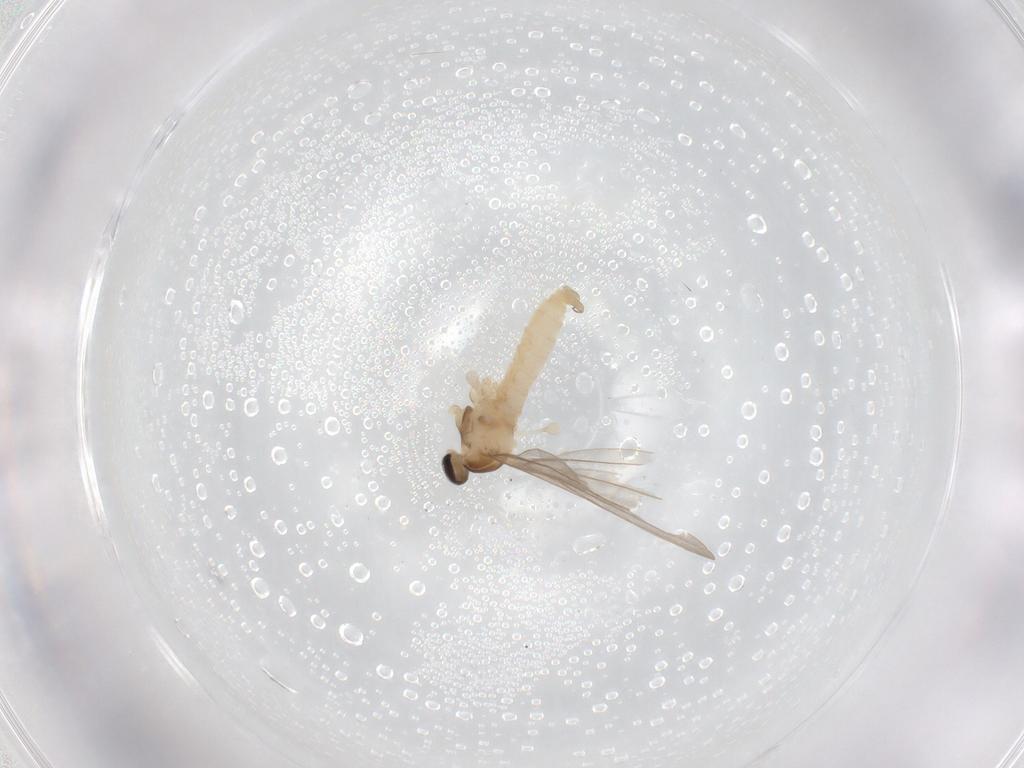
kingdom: Animalia
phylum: Arthropoda
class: Insecta
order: Diptera
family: Cecidomyiidae
